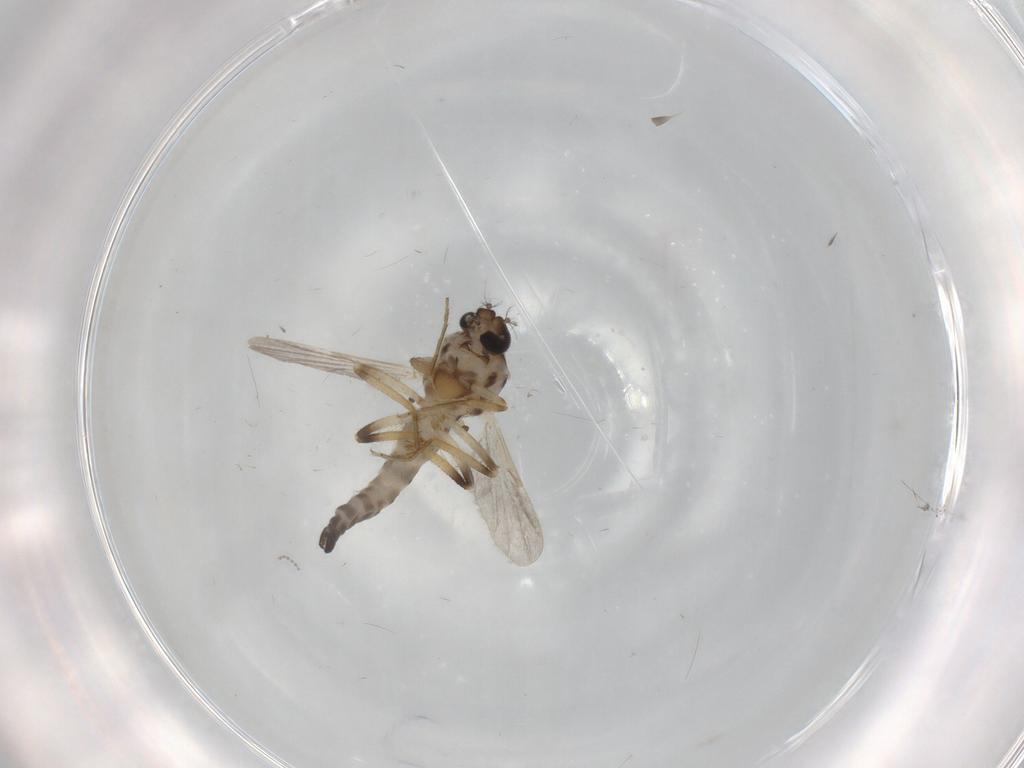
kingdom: Animalia
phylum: Arthropoda
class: Insecta
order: Diptera
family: Ceratopogonidae
